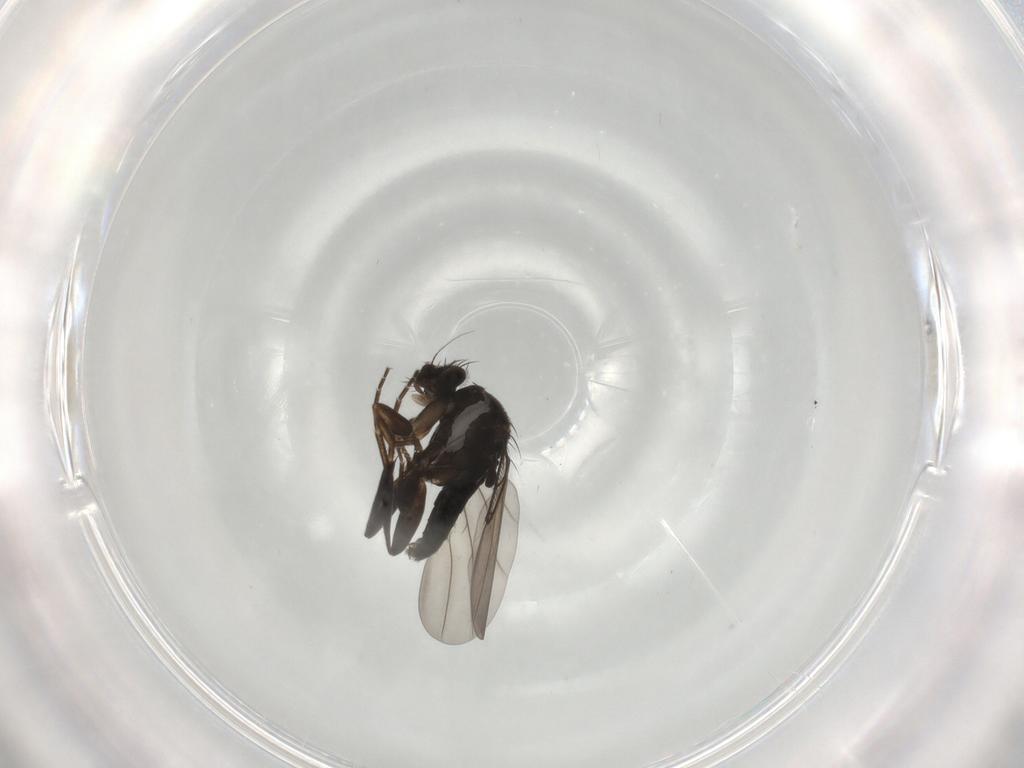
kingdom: Animalia
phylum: Arthropoda
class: Insecta
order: Diptera
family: Phoridae
